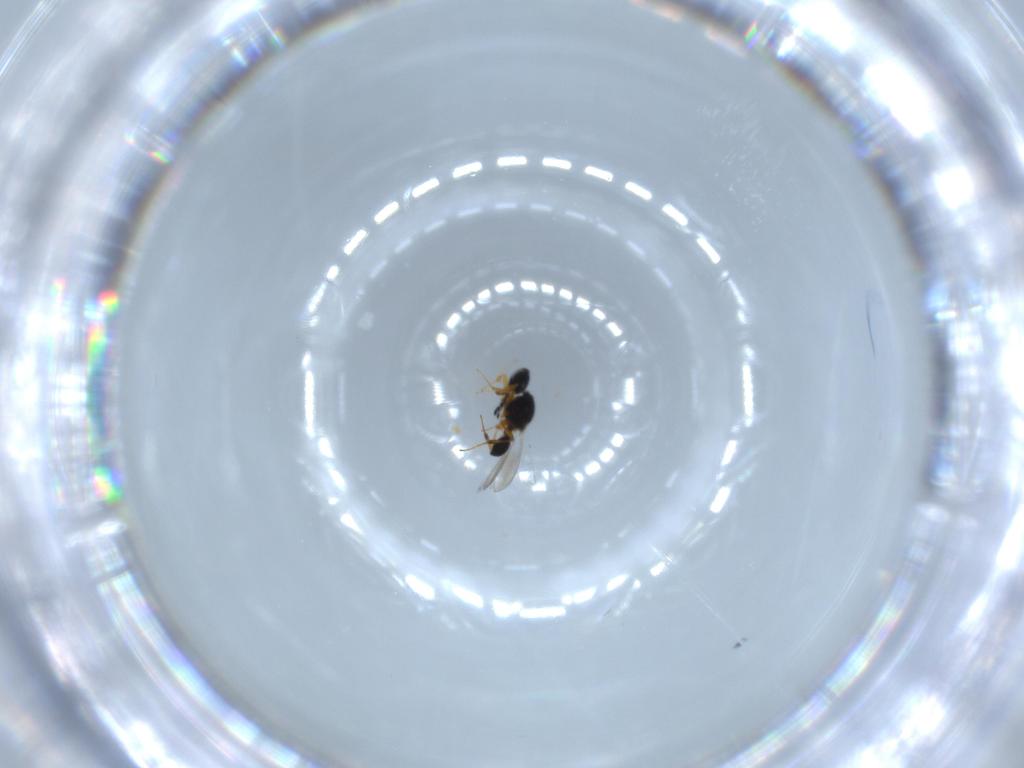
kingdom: Animalia
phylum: Arthropoda
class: Insecta
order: Hymenoptera
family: Platygastridae
